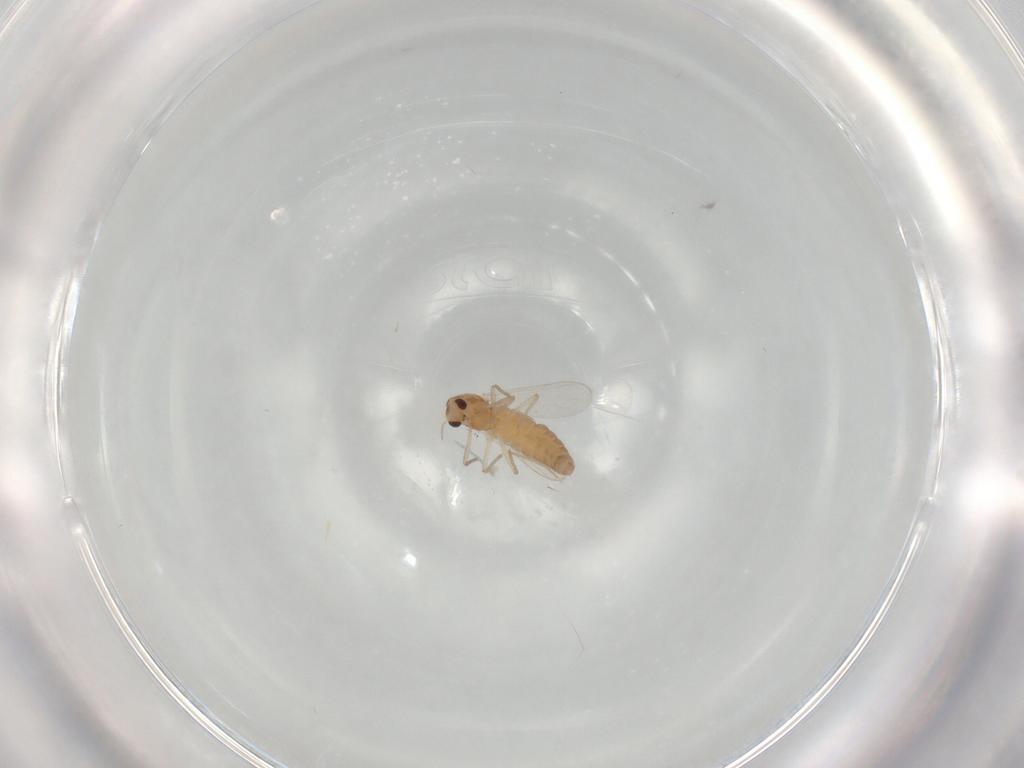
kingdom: Animalia
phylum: Arthropoda
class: Insecta
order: Diptera
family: Chironomidae
